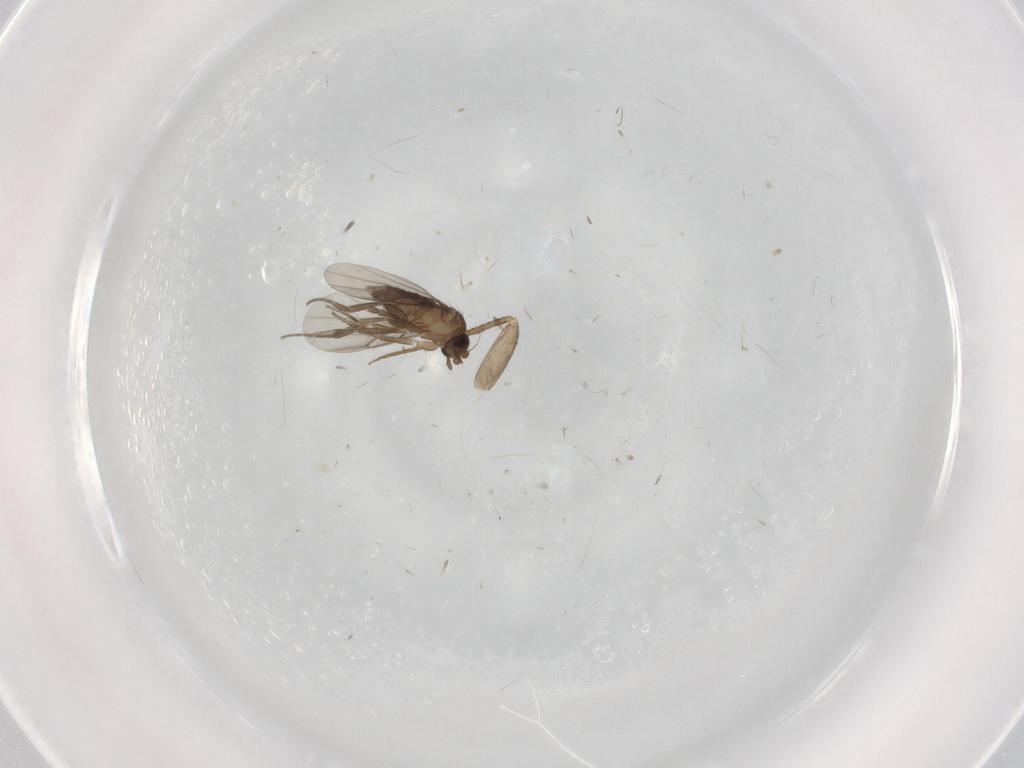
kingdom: Animalia
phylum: Arthropoda
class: Insecta
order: Diptera
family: Phoridae
